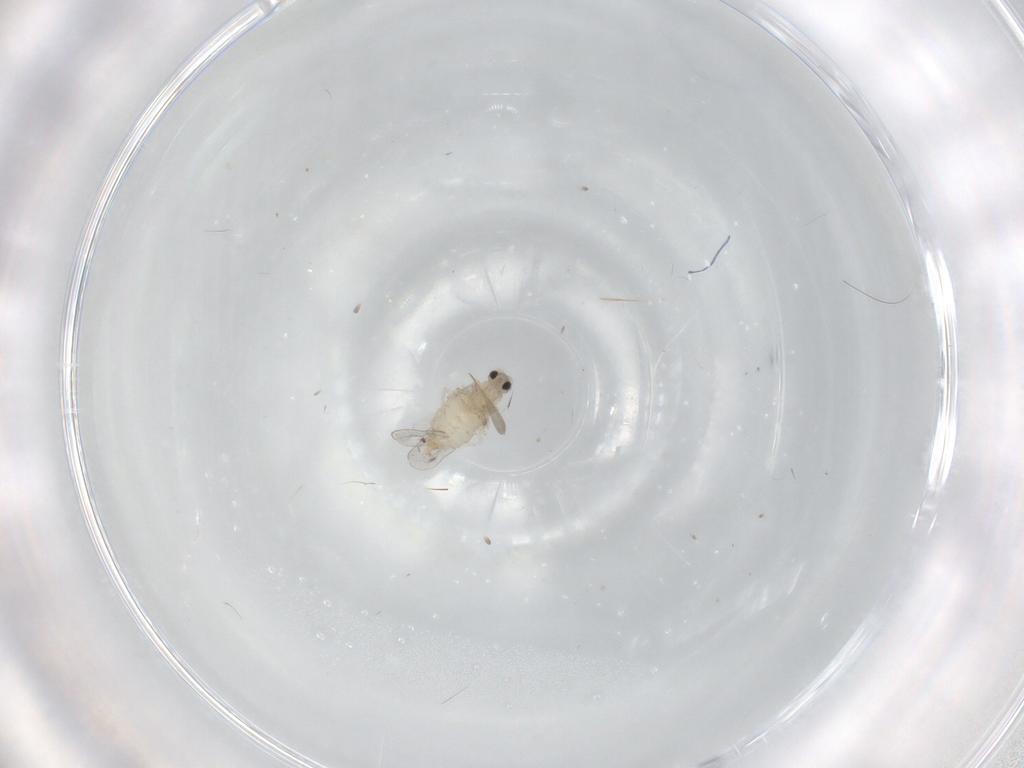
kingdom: Animalia
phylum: Arthropoda
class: Insecta
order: Diptera
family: Cecidomyiidae
